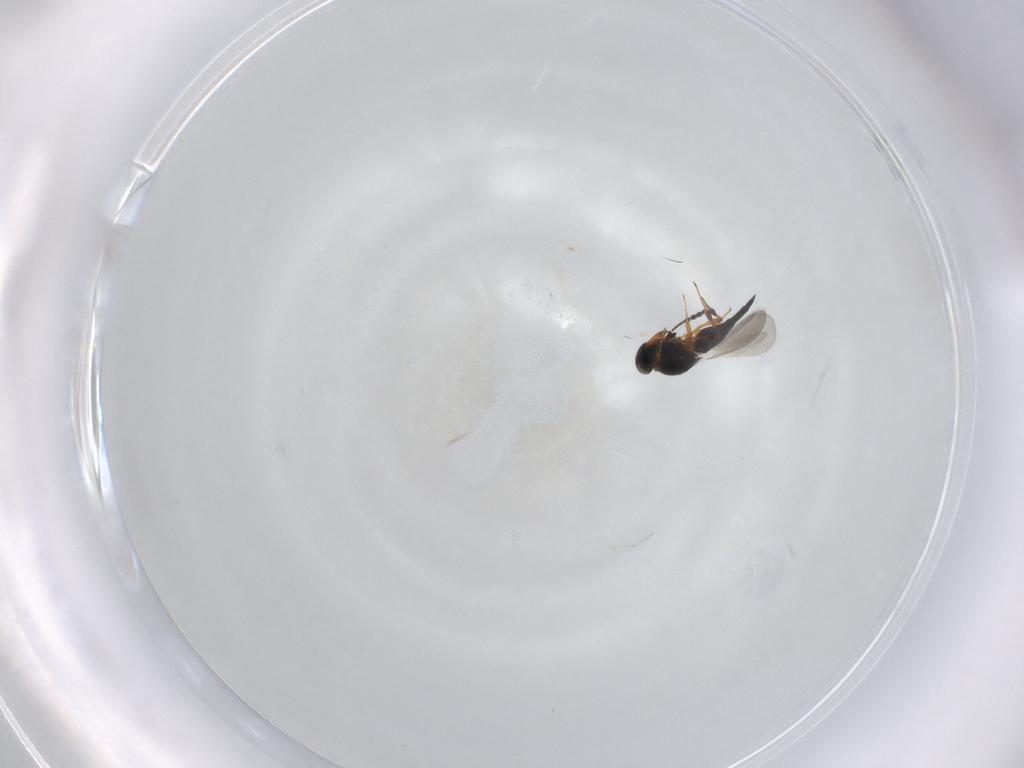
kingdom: Animalia
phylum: Arthropoda
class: Insecta
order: Hymenoptera
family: Platygastridae
